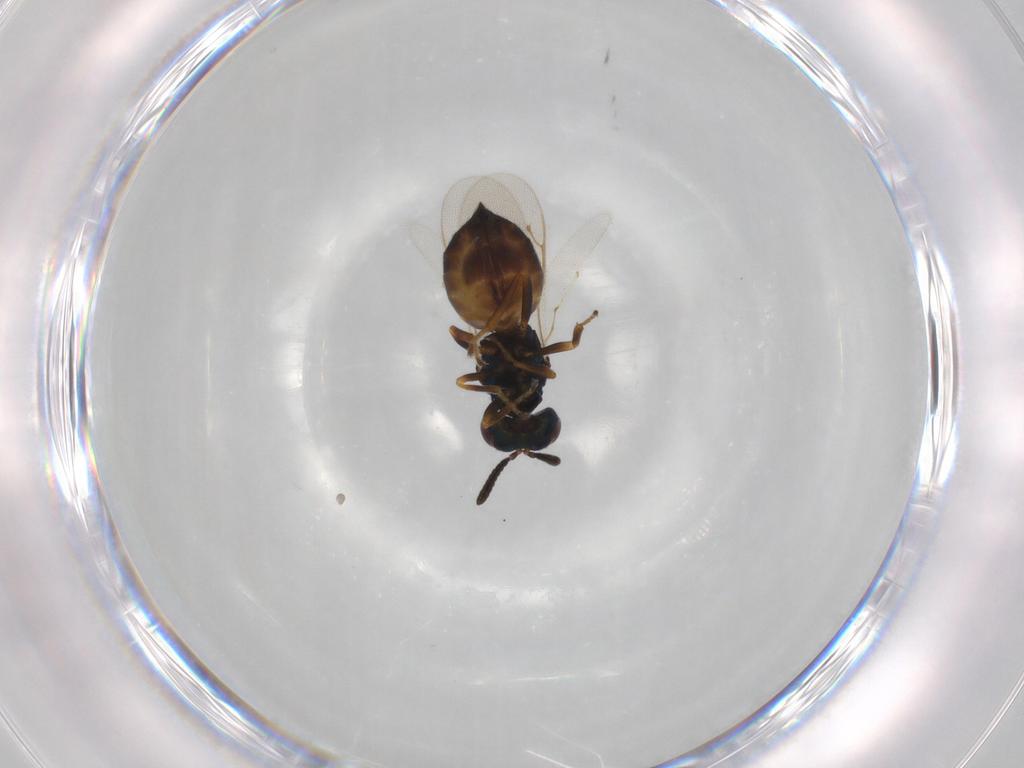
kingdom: Animalia
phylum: Arthropoda
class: Insecta
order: Hymenoptera
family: Pteromalidae
